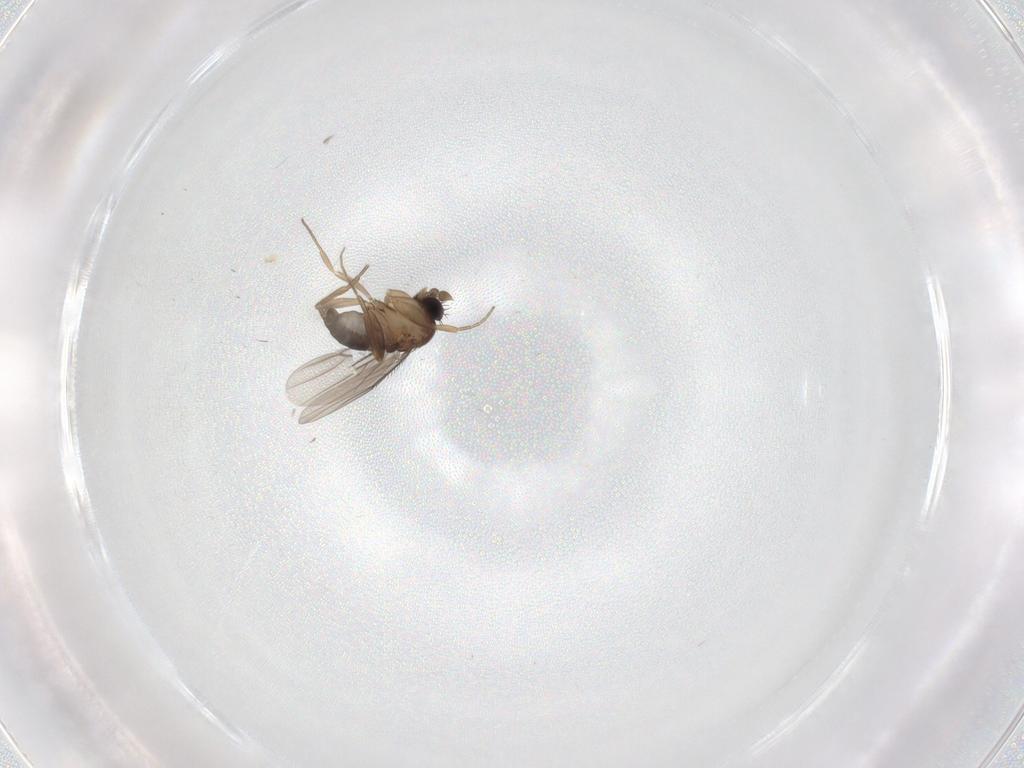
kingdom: Animalia
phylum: Arthropoda
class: Insecta
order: Diptera
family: Phoridae
